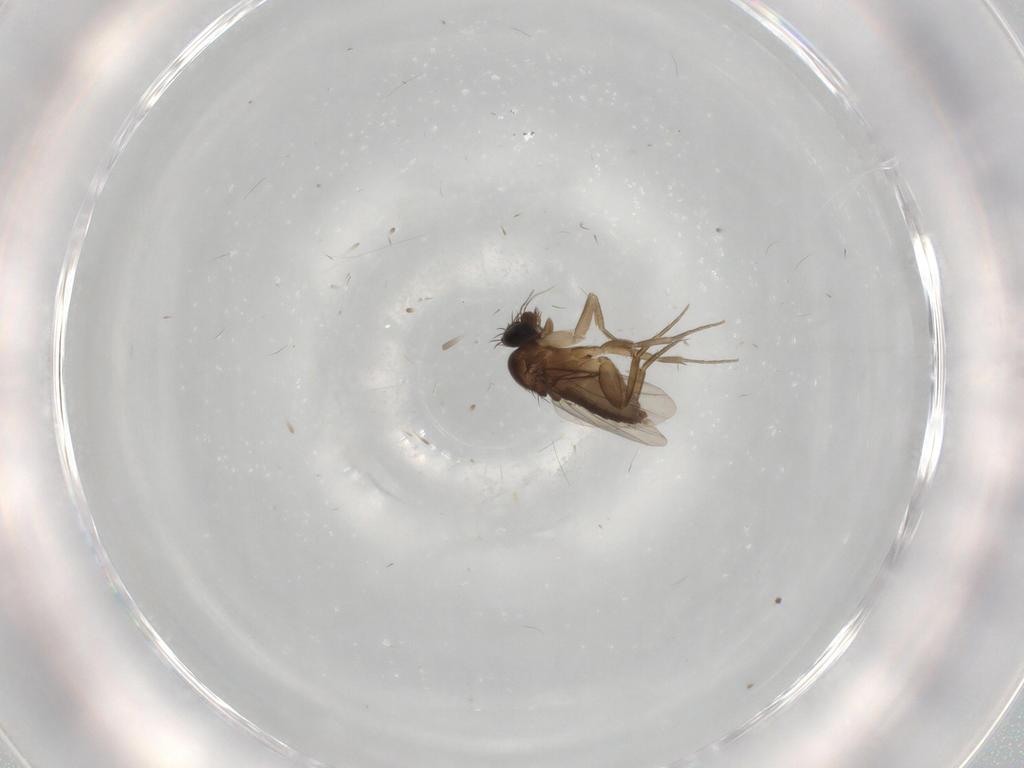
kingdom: Animalia
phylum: Arthropoda
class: Insecta
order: Diptera
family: Phoridae
